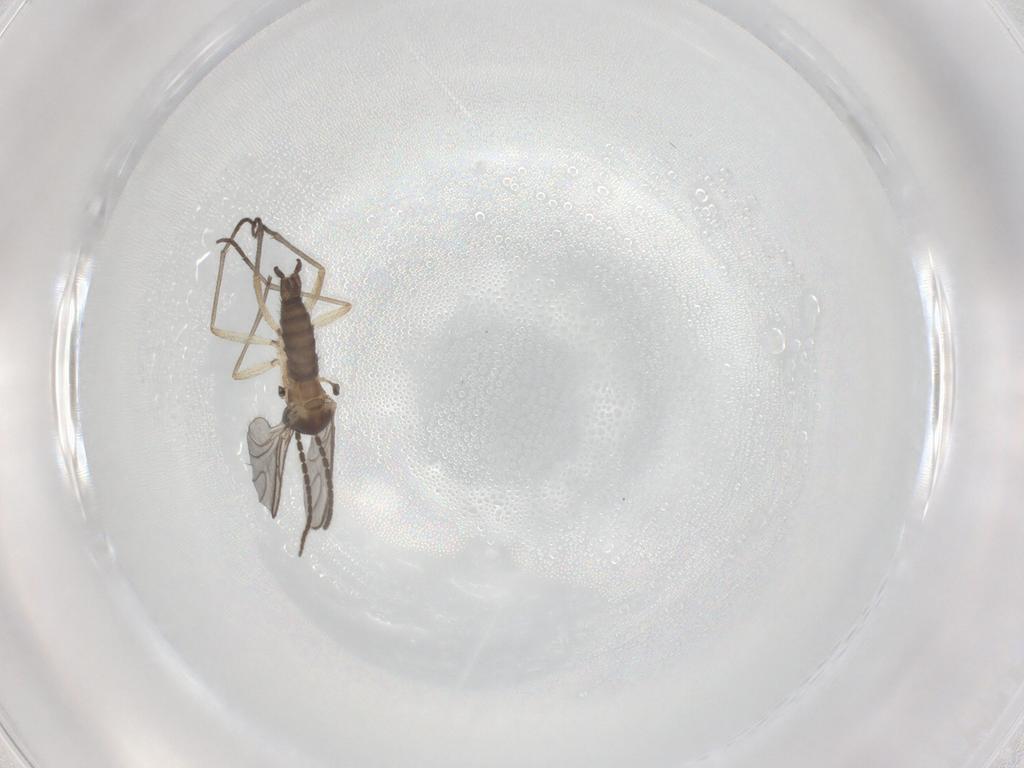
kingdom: Animalia
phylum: Arthropoda
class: Insecta
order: Diptera
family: Sciaridae
